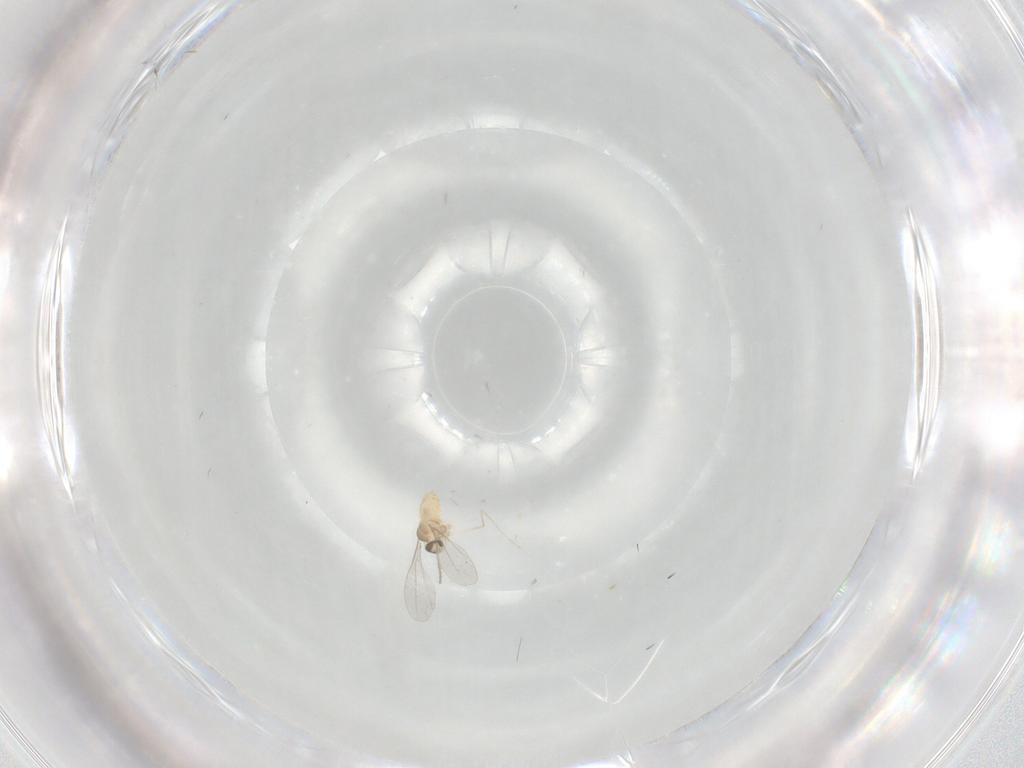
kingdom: Animalia
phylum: Arthropoda
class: Insecta
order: Diptera
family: Cecidomyiidae
